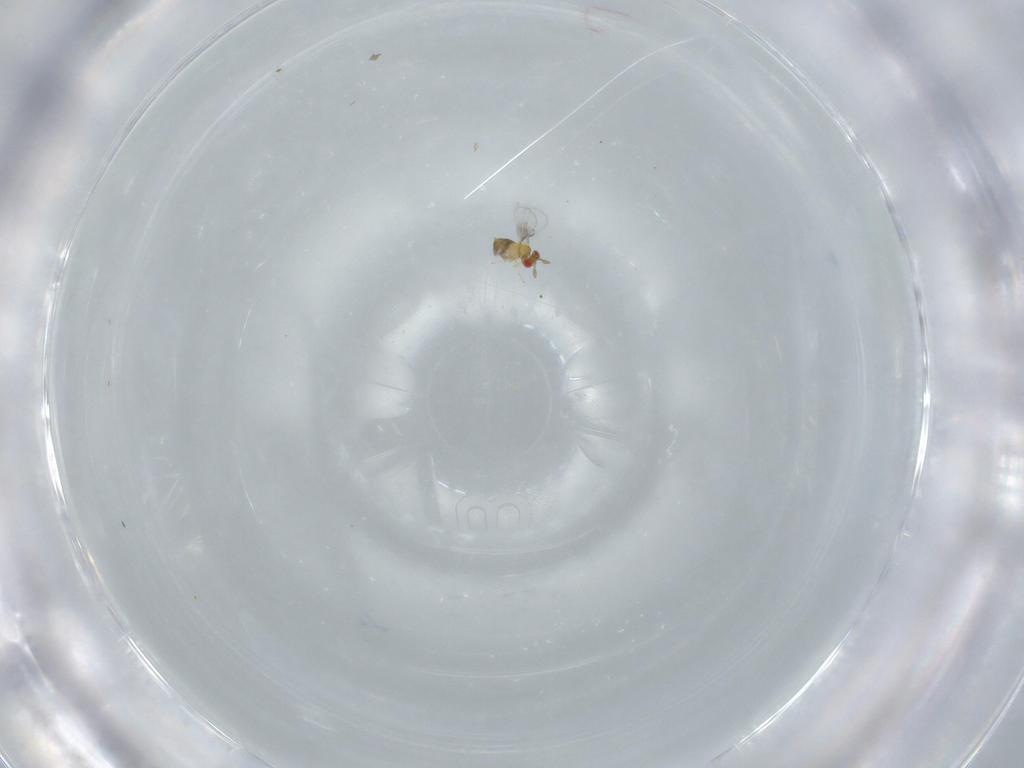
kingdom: Animalia
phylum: Arthropoda
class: Insecta
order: Hymenoptera
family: Trichogrammatidae
